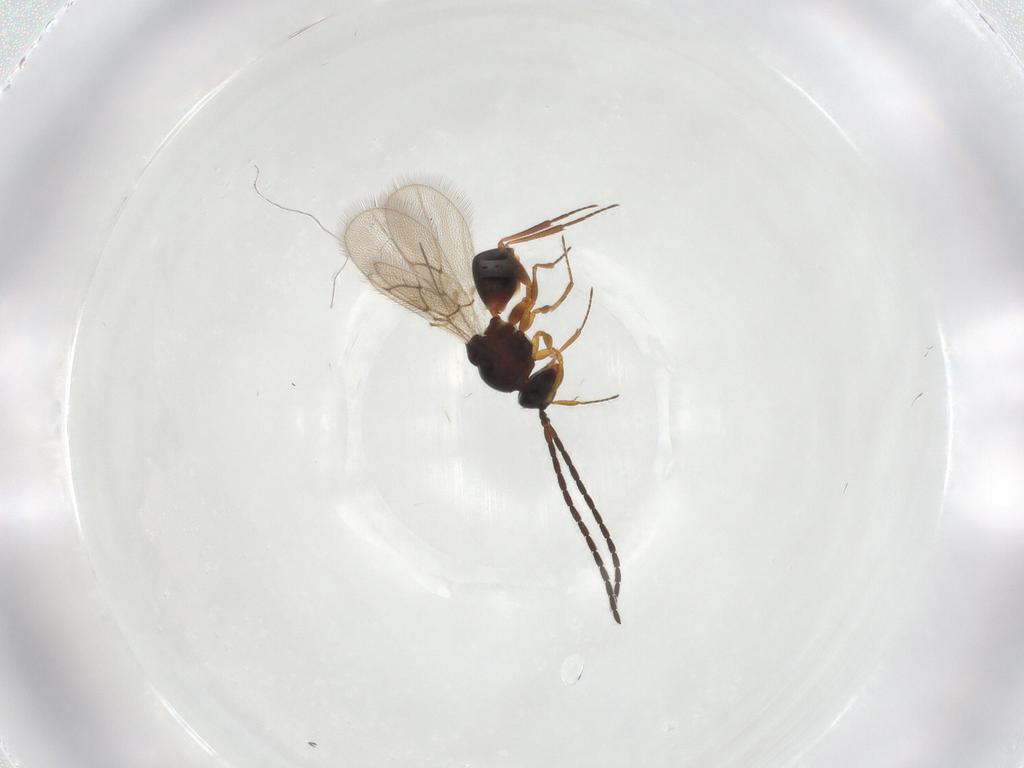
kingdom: Animalia
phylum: Arthropoda
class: Insecta
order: Hymenoptera
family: Figitidae
